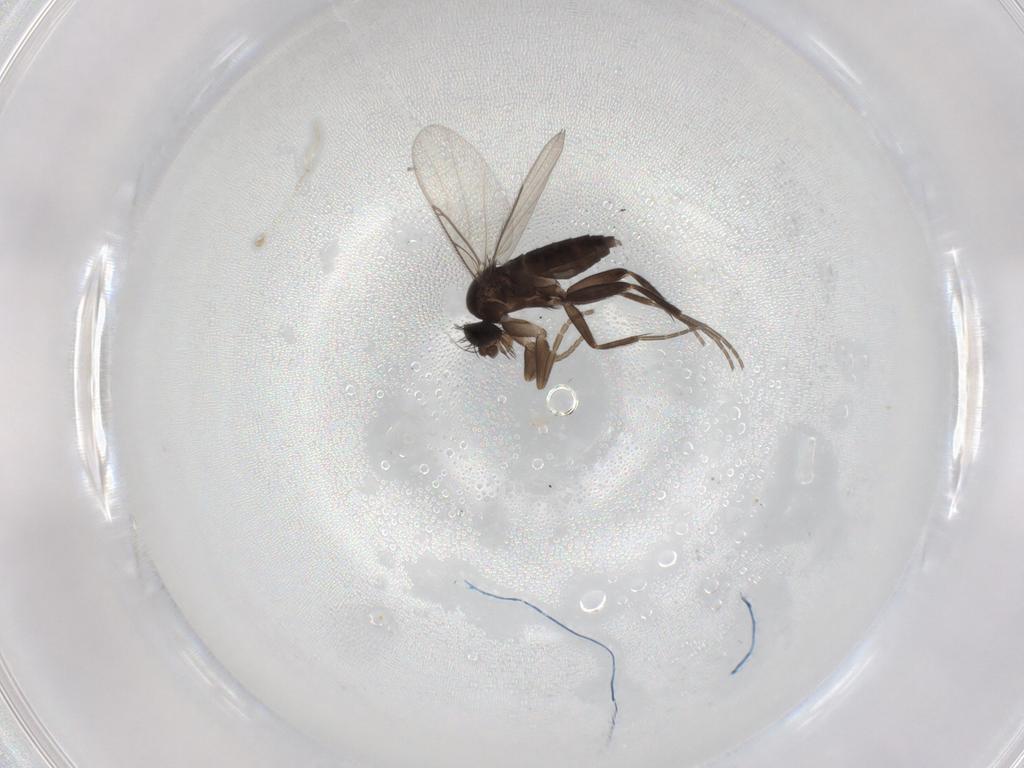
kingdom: Animalia
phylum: Arthropoda
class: Insecta
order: Diptera
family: Phoridae
